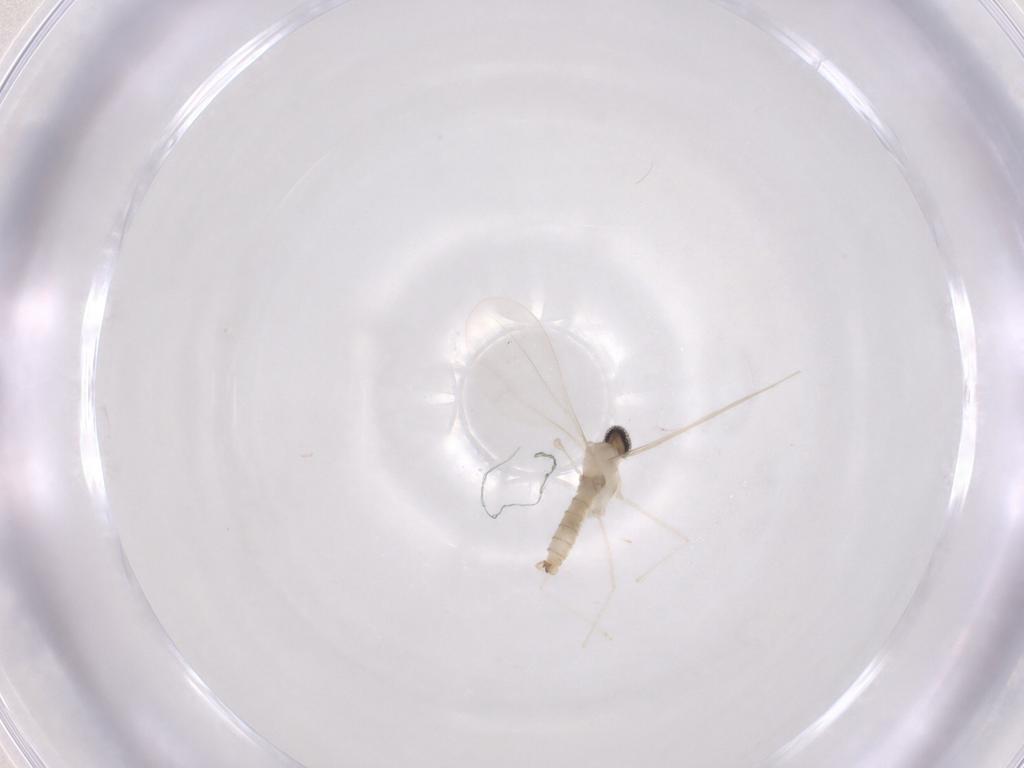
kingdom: Animalia
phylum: Arthropoda
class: Insecta
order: Diptera
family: Cecidomyiidae
